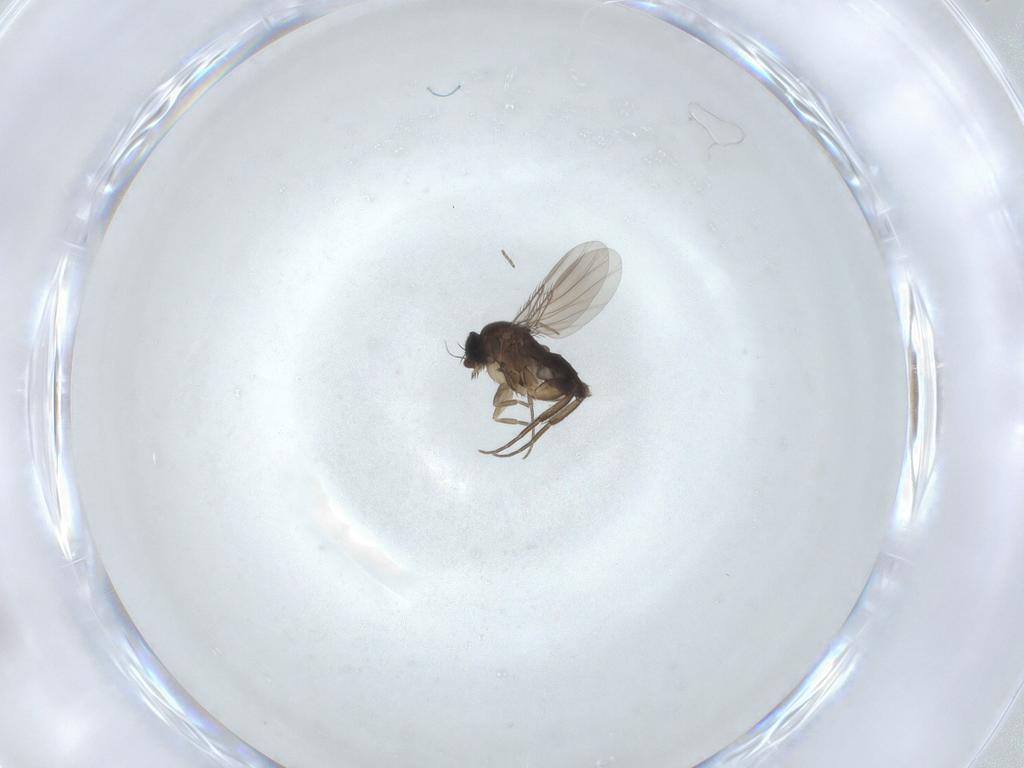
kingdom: Animalia
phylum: Arthropoda
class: Insecta
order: Diptera
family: Phoridae
